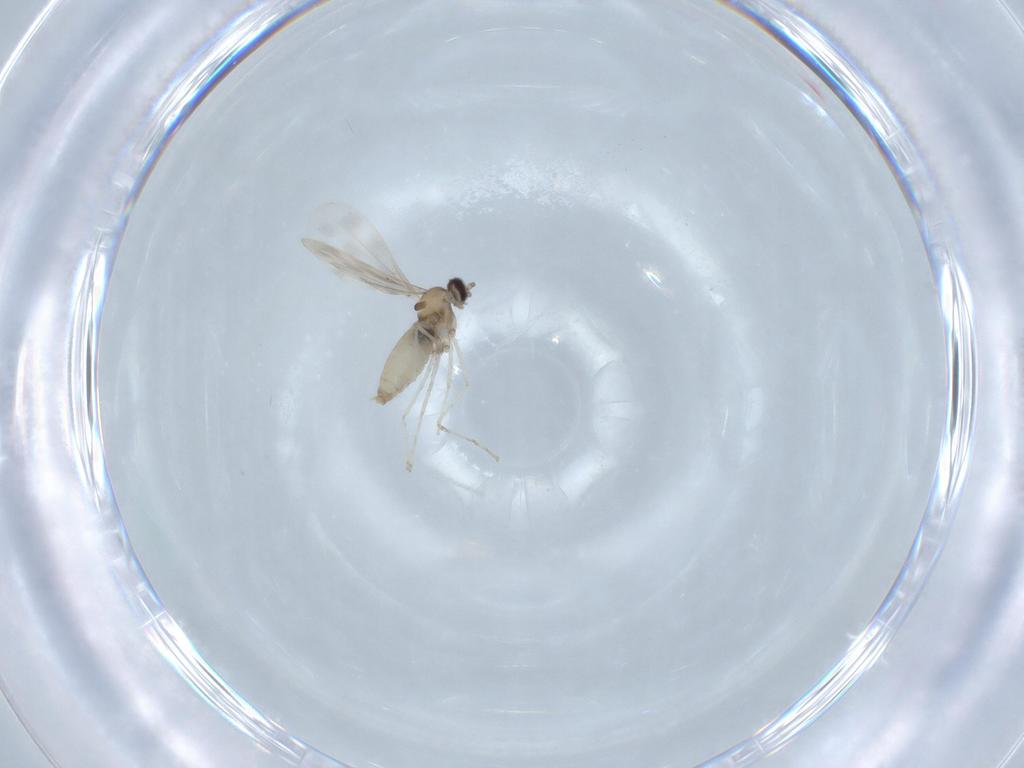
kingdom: Animalia
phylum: Arthropoda
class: Insecta
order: Diptera
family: Cecidomyiidae
